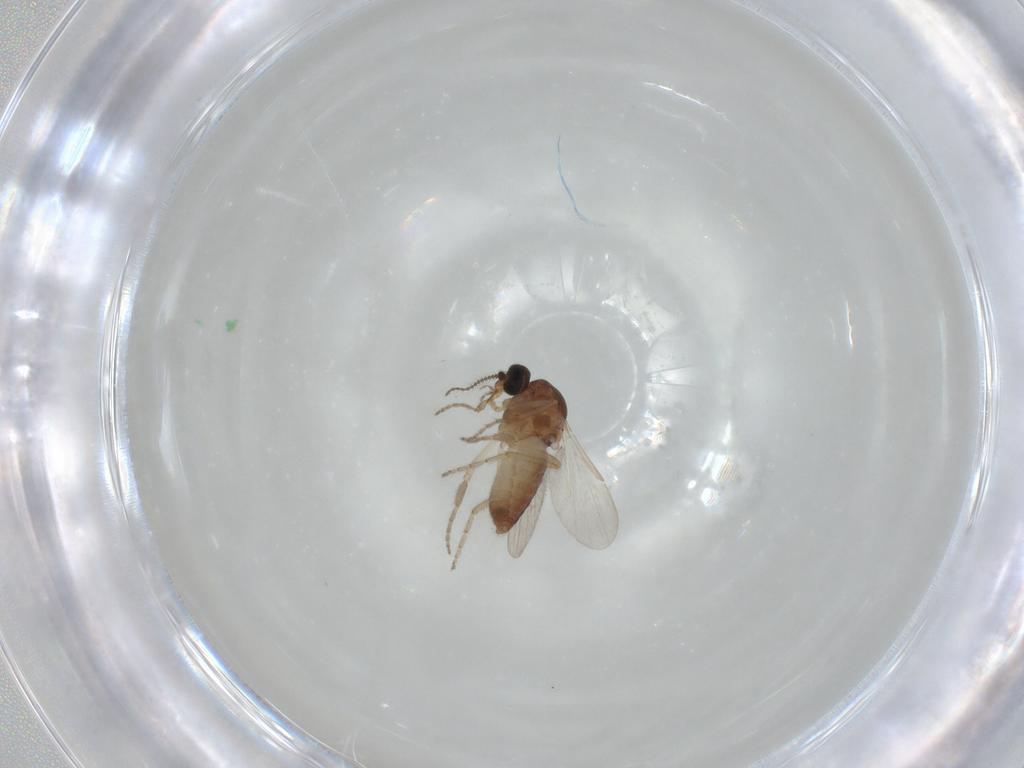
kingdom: Animalia
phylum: Arthropoda
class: Insecta
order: Diptera
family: Ceratopogonidae
